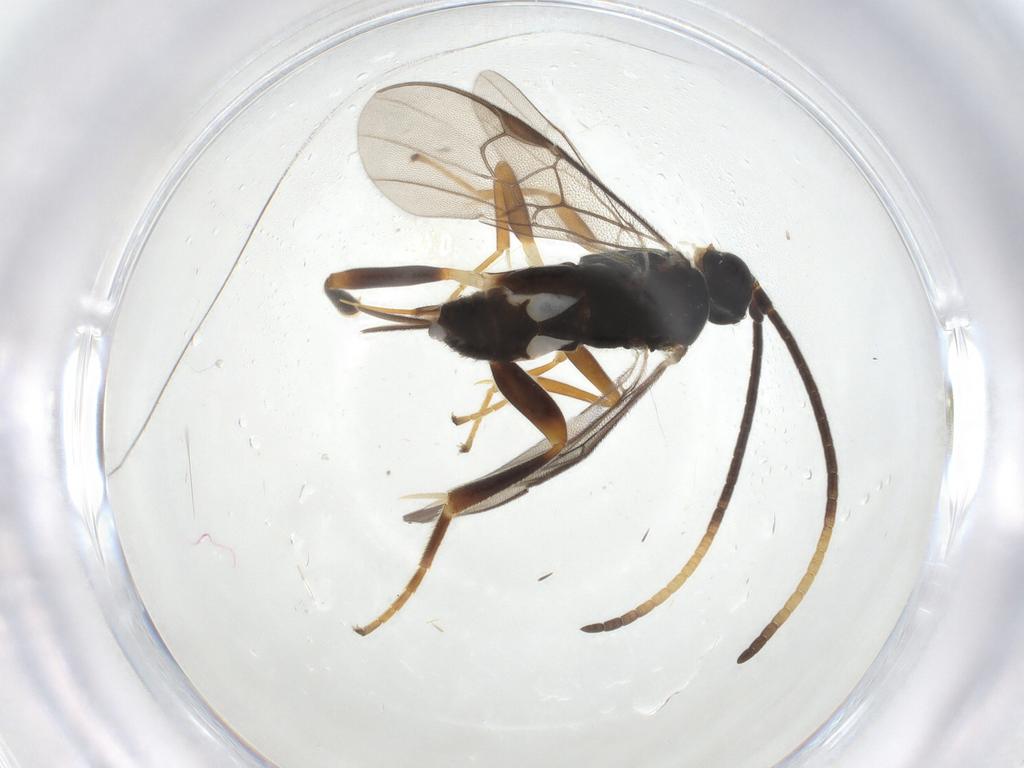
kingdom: Animalia
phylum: Arthropoda
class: Insecta
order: Hymenoptera
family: Braconidae
